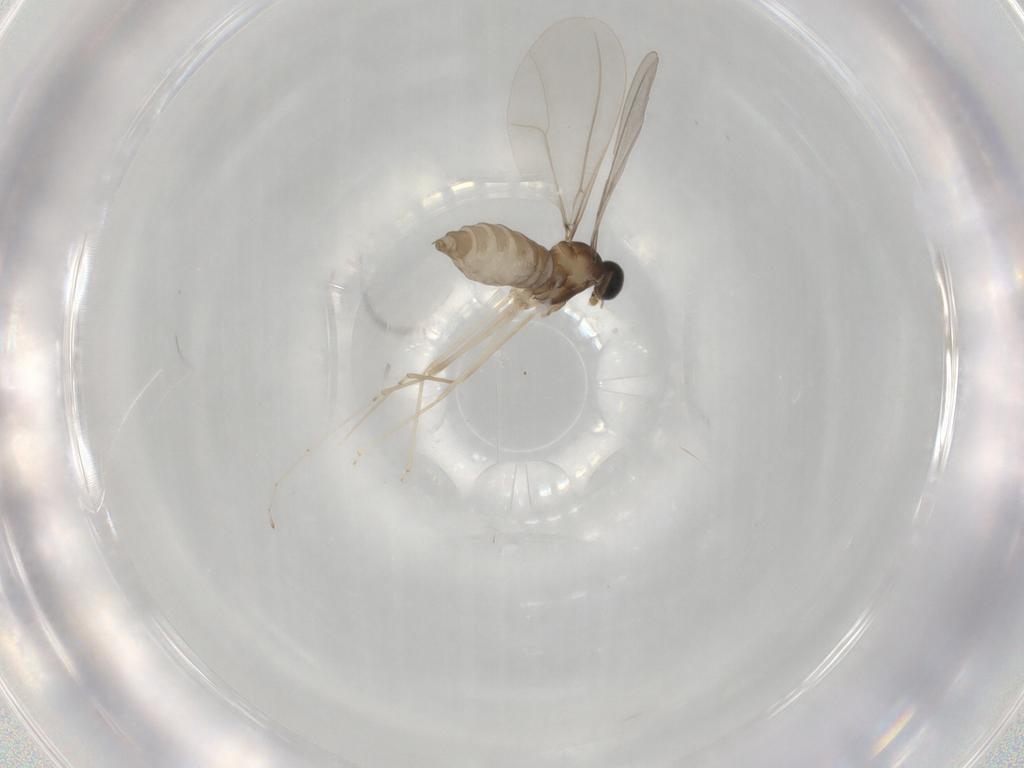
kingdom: Animalia
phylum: Arthropoda
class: Insecta
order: Diptera
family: Cecidomyiidae
